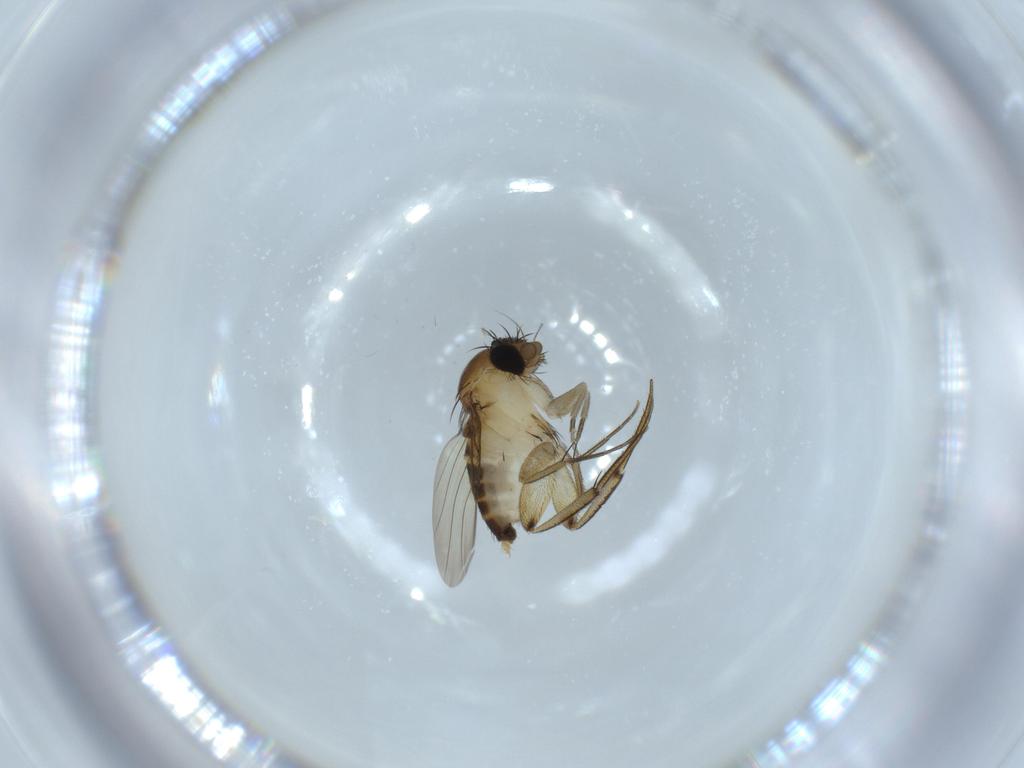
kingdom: Animalia
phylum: Arthropoda
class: Insecta
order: Diptera
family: Phoridae
